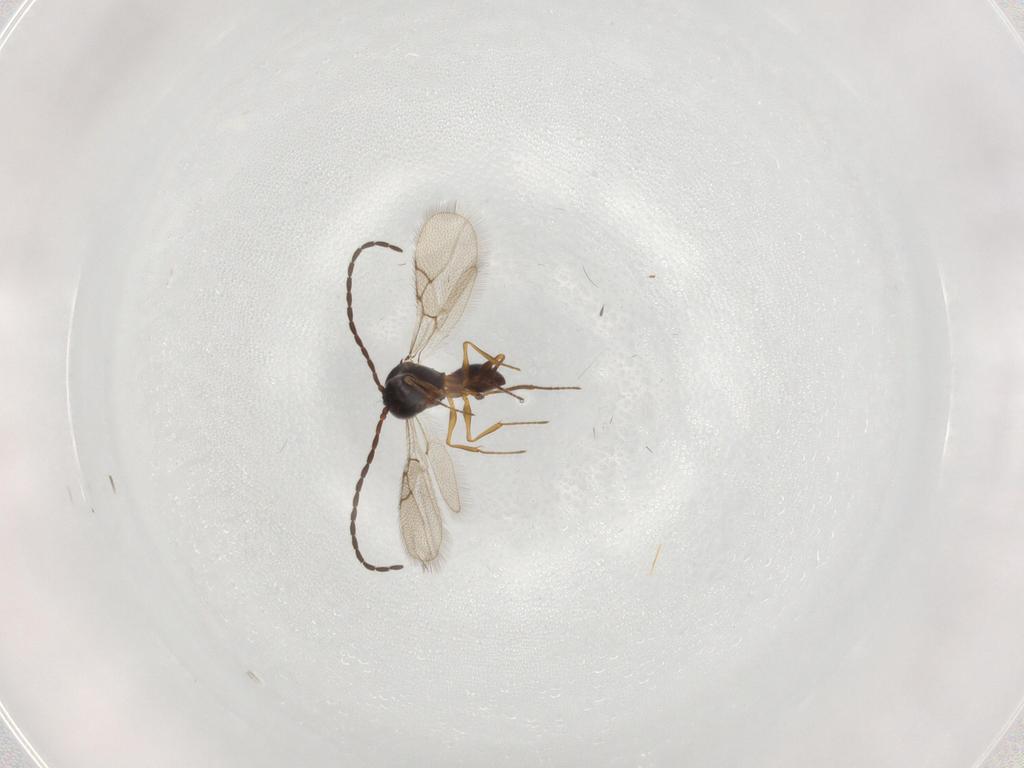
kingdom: Animalia
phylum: Arthropoda
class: Insecta
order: Hymenoptera
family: Figitidae
